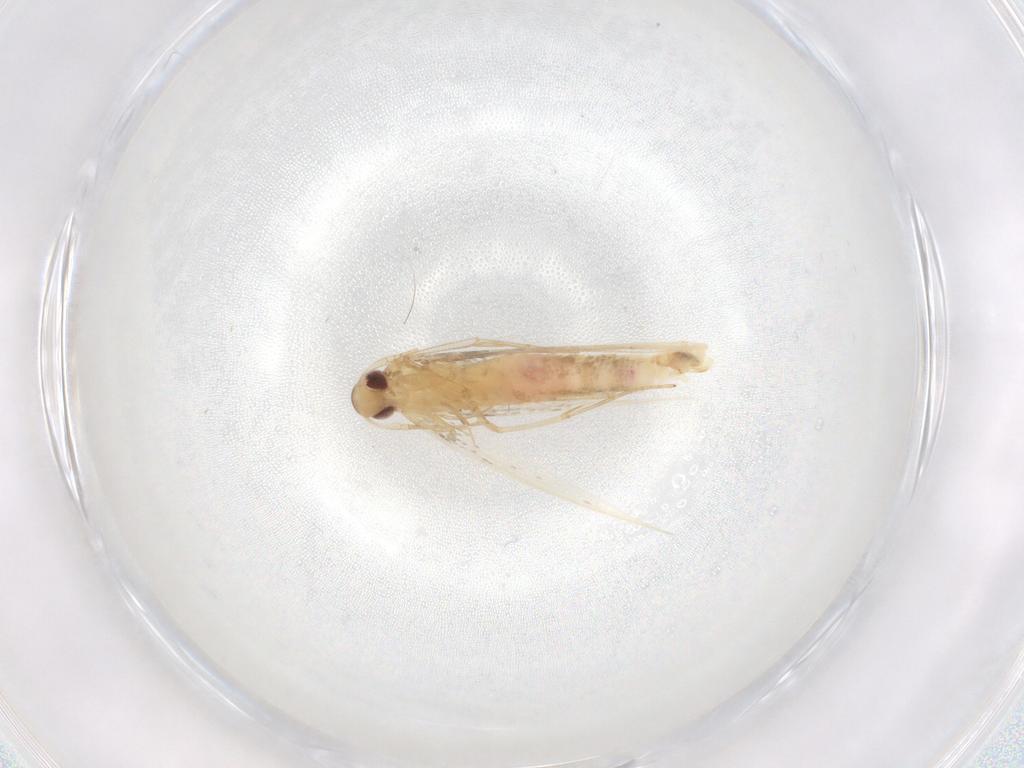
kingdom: Animalia
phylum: Arthropoda
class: Insecta
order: Lepidoptera
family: Cosmopterigidae
